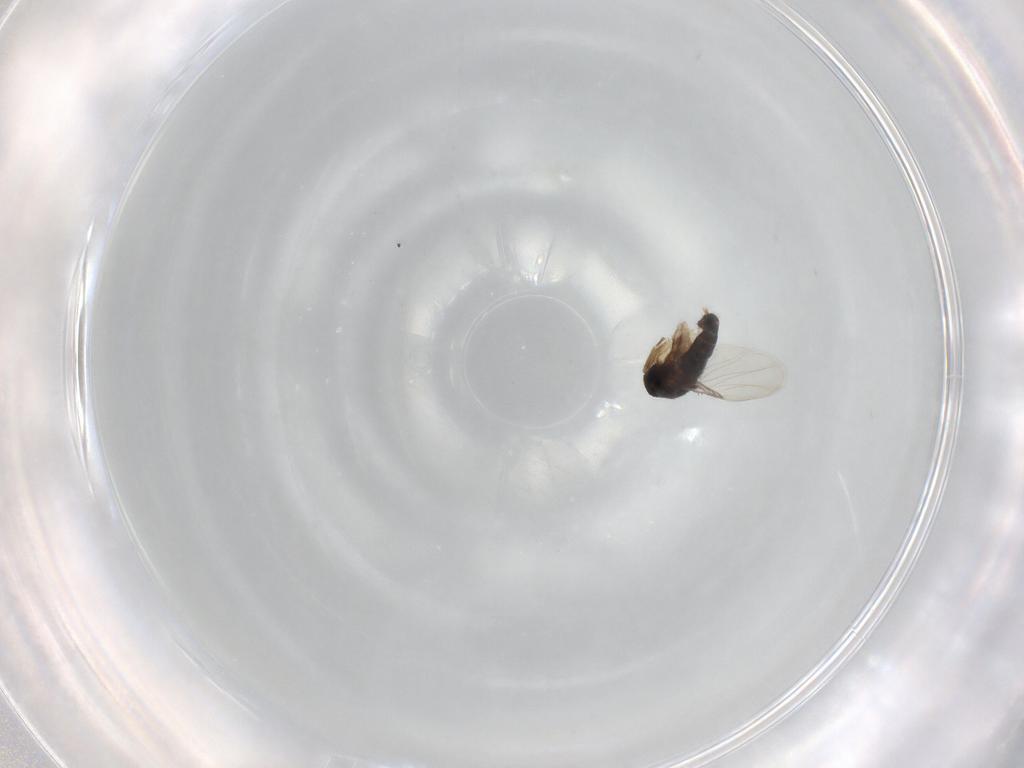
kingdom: Animalia
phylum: Arthropoda
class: Insecta
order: Diptera
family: Phoridae
